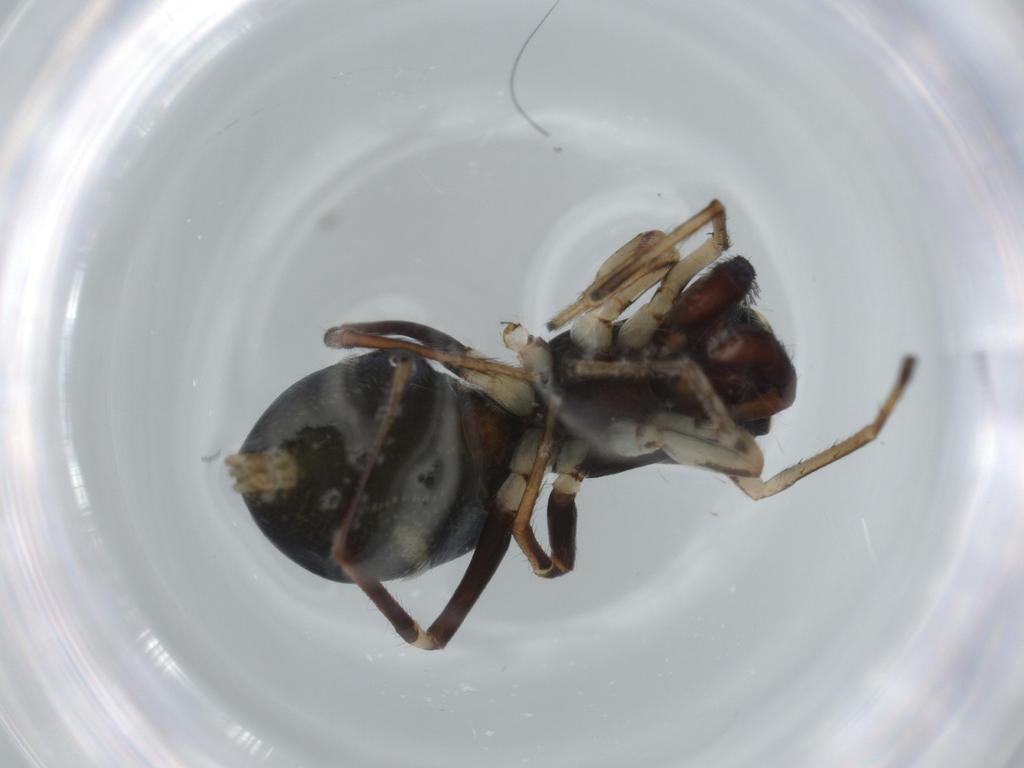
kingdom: Animalia
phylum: Arthropoda
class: Arachnida
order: Araneae
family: Salticidae
